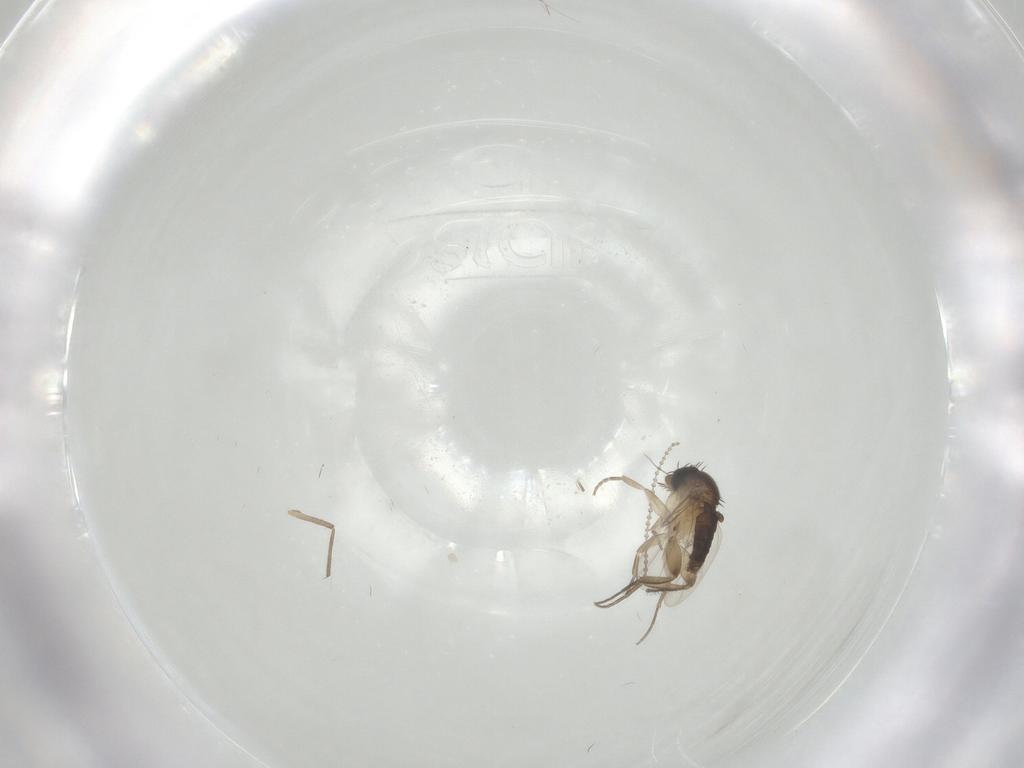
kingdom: Animalia
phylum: Arthropoda
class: Insecta
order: Diptera
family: Phoridae
